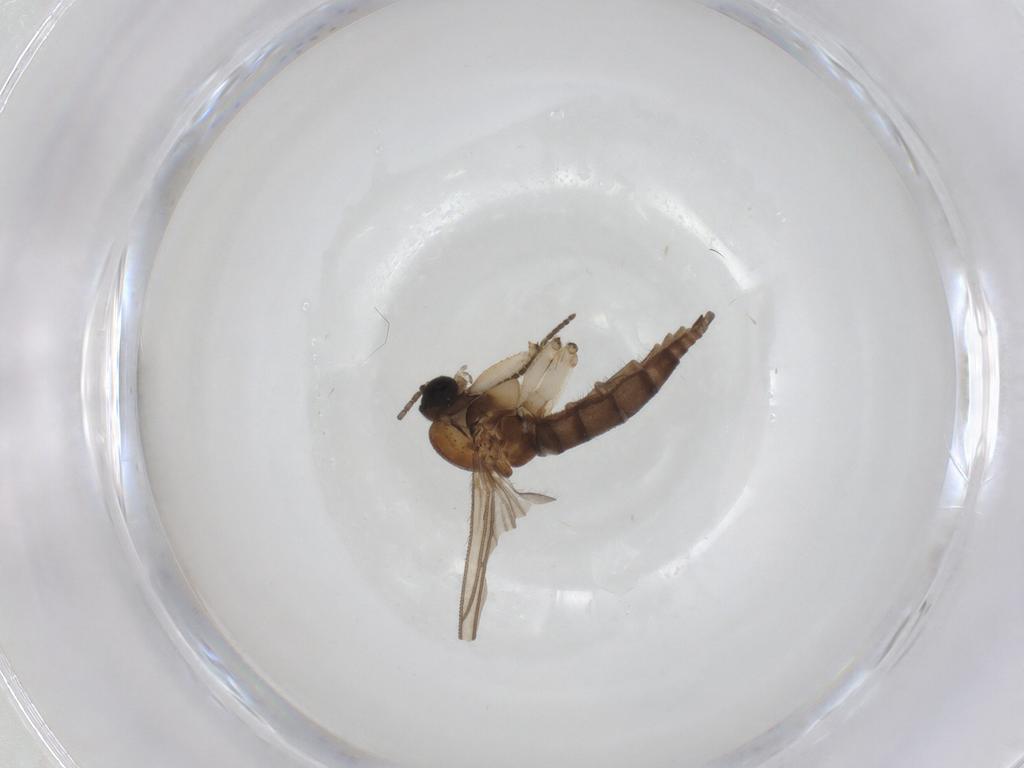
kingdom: Animalia
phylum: Arthropoda
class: Insecta
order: Diptera
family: Sciaridae
